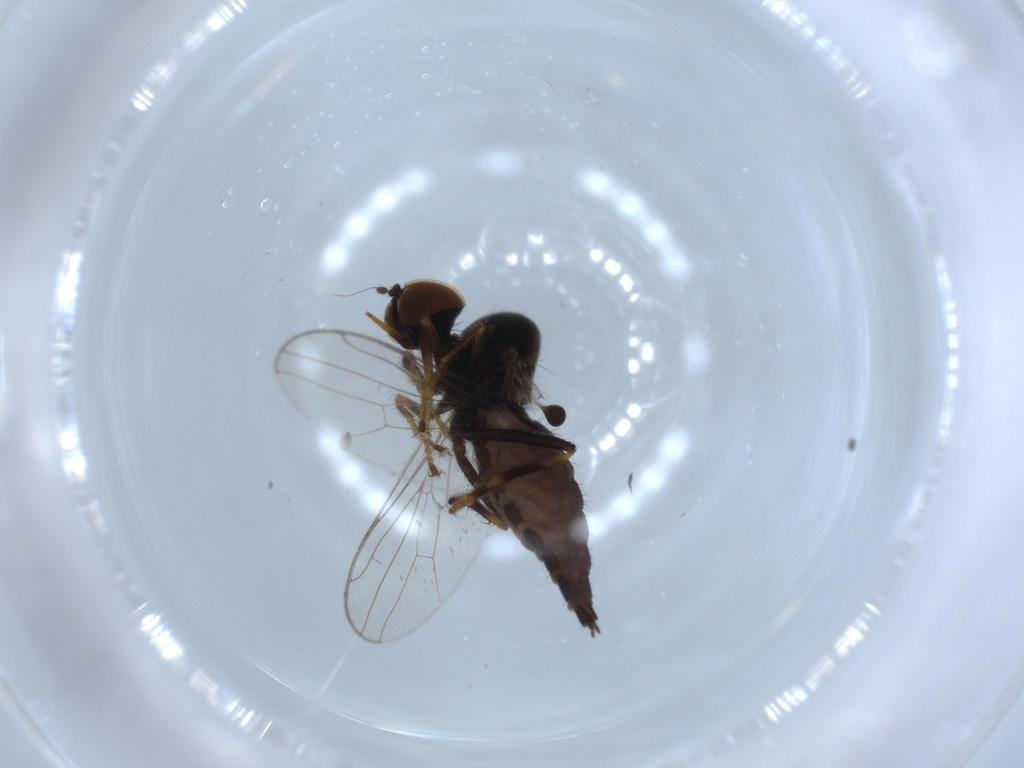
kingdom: Animalia
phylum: Arthropoda
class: Insecta
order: Diptera
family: Hybotidae
